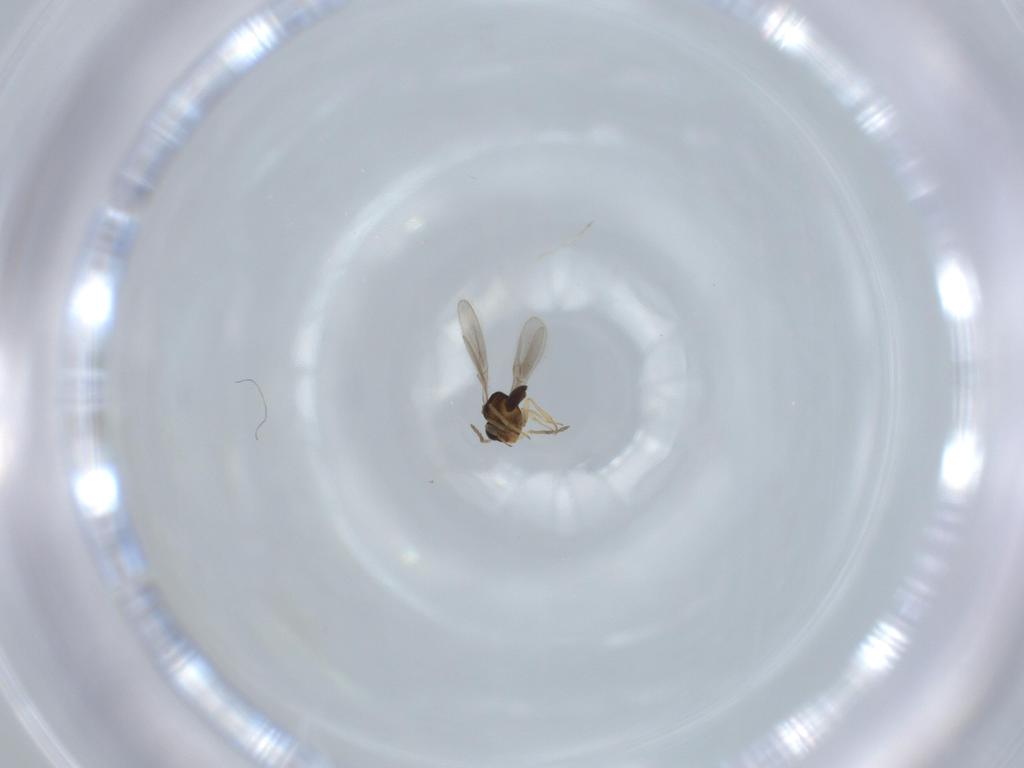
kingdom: Animalia
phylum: Arthropoda
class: Insecta
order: Hymenoptera
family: Scelionidae
